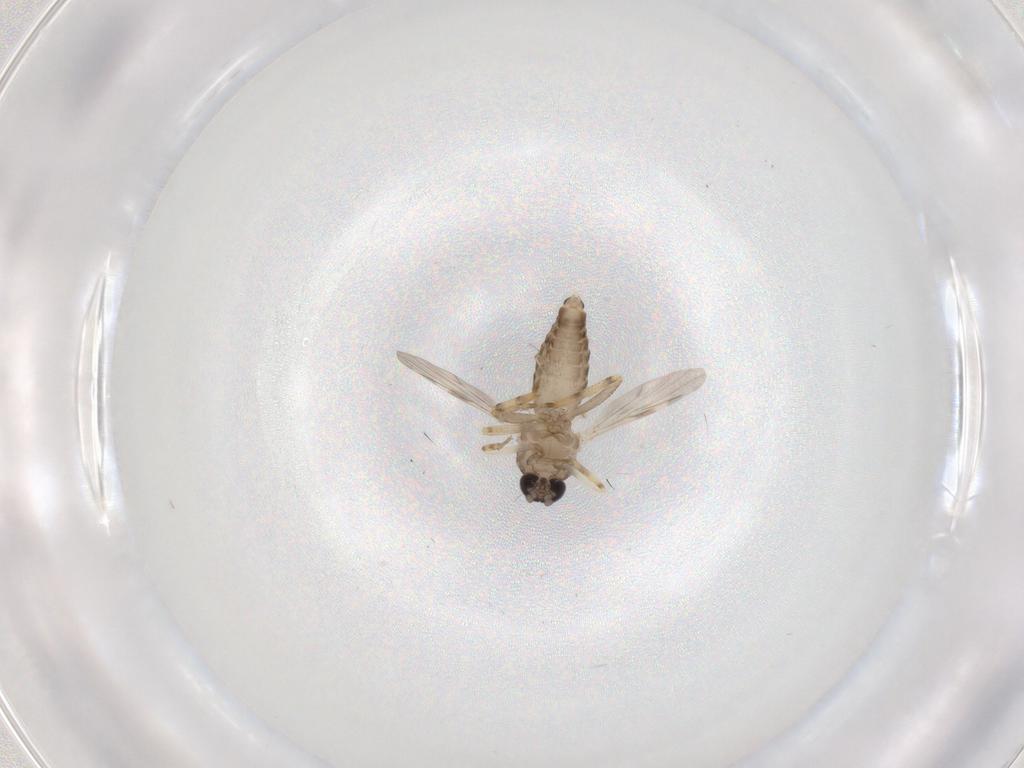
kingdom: Animalia
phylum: Arthropoda
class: Insecta
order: Diptera
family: Ceratopogonidae
